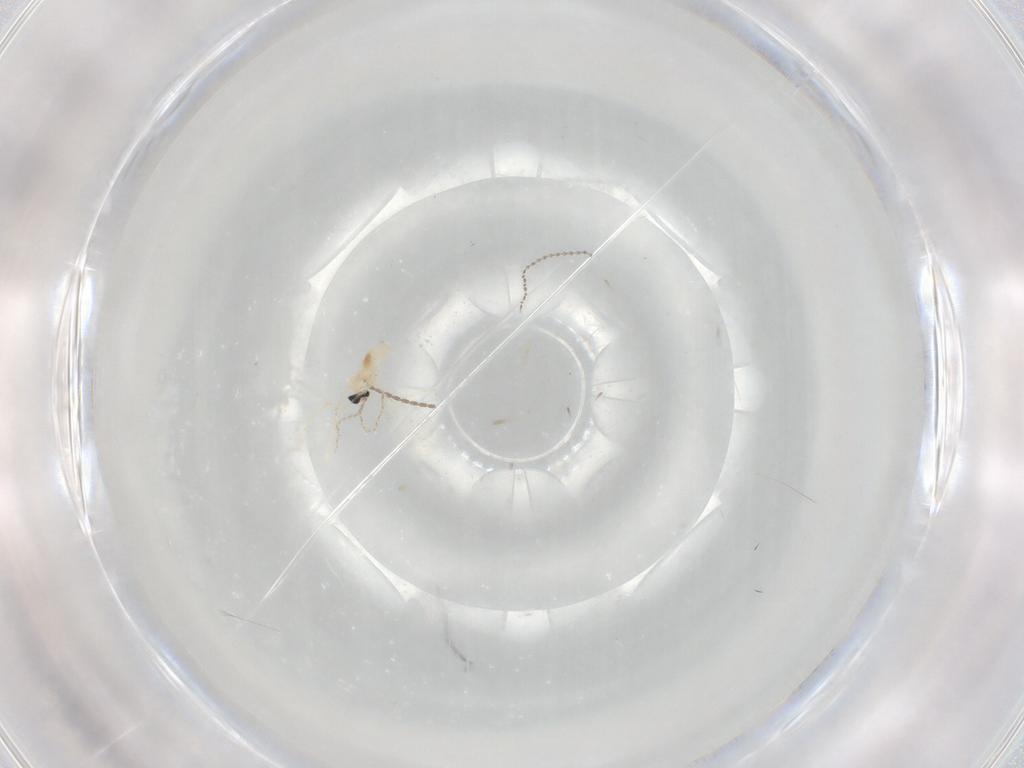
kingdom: Animalia
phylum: Arthropoda
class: Insecta
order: Diptera
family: Cecidomyiidae
